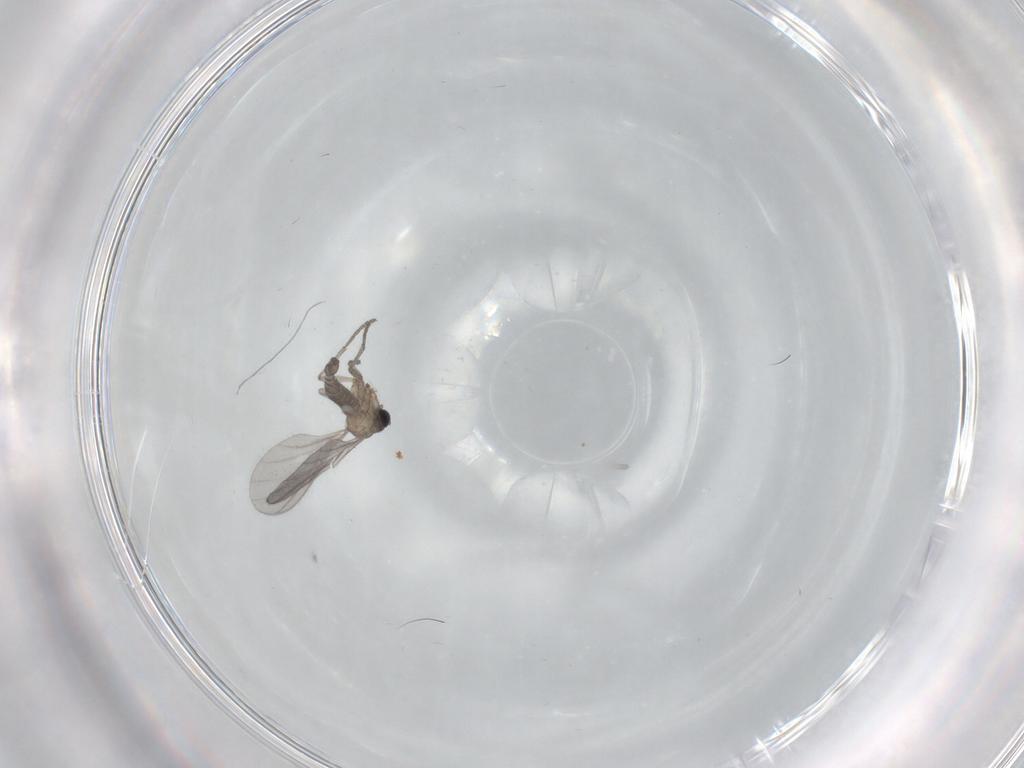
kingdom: Animalia
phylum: Arthropoda
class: Insecta
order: Diptera
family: Sciaridae
